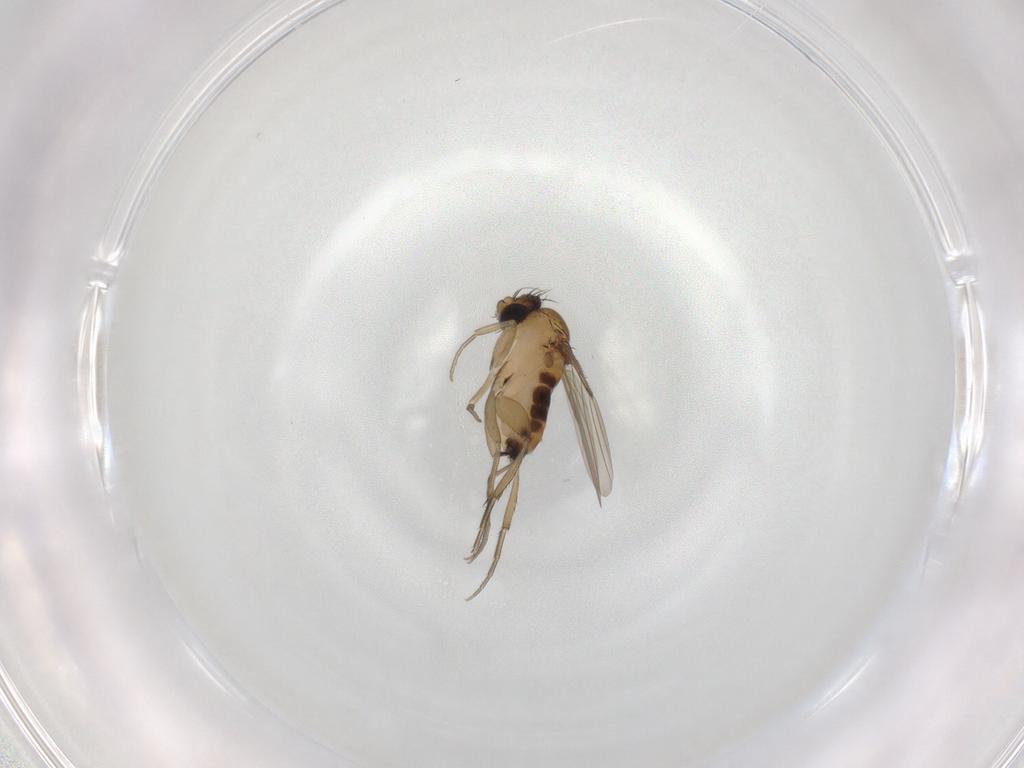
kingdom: Animalia
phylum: Arthropoda
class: Insecta
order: Diptera
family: Phoridae
